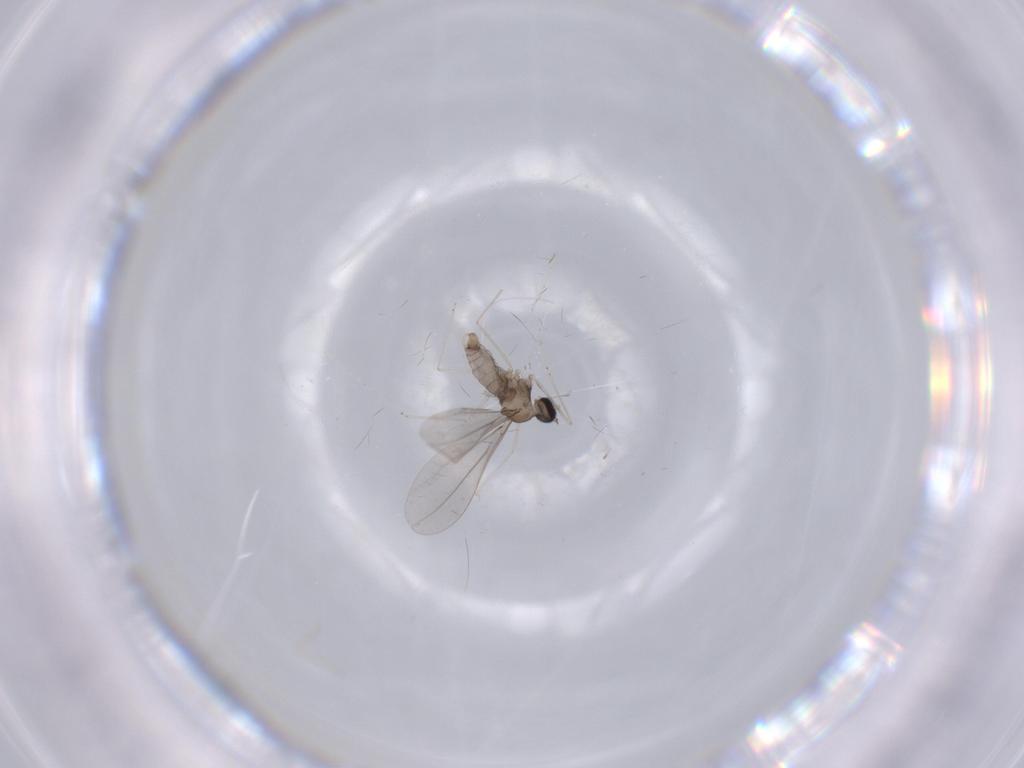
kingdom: Animalia
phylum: Arthropoda
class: Insecta
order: Diptera
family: Cecidomyiidae
